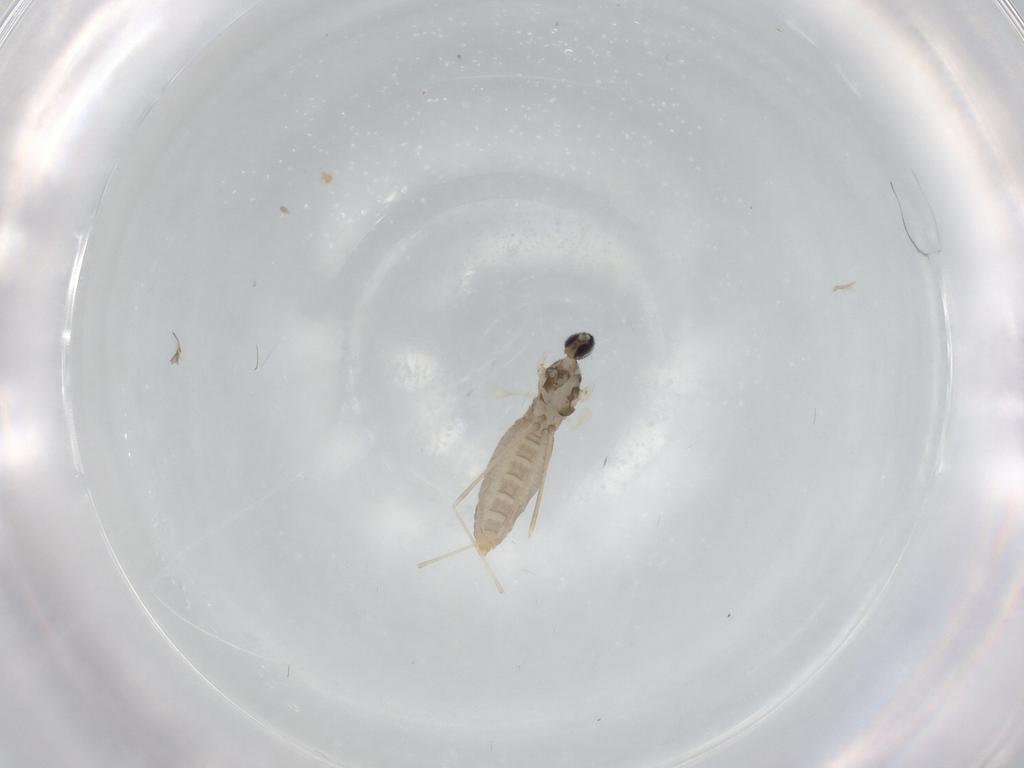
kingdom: Animalia
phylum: Arthropoda
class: Insecta
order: Diptera
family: Cecidomyiidae
